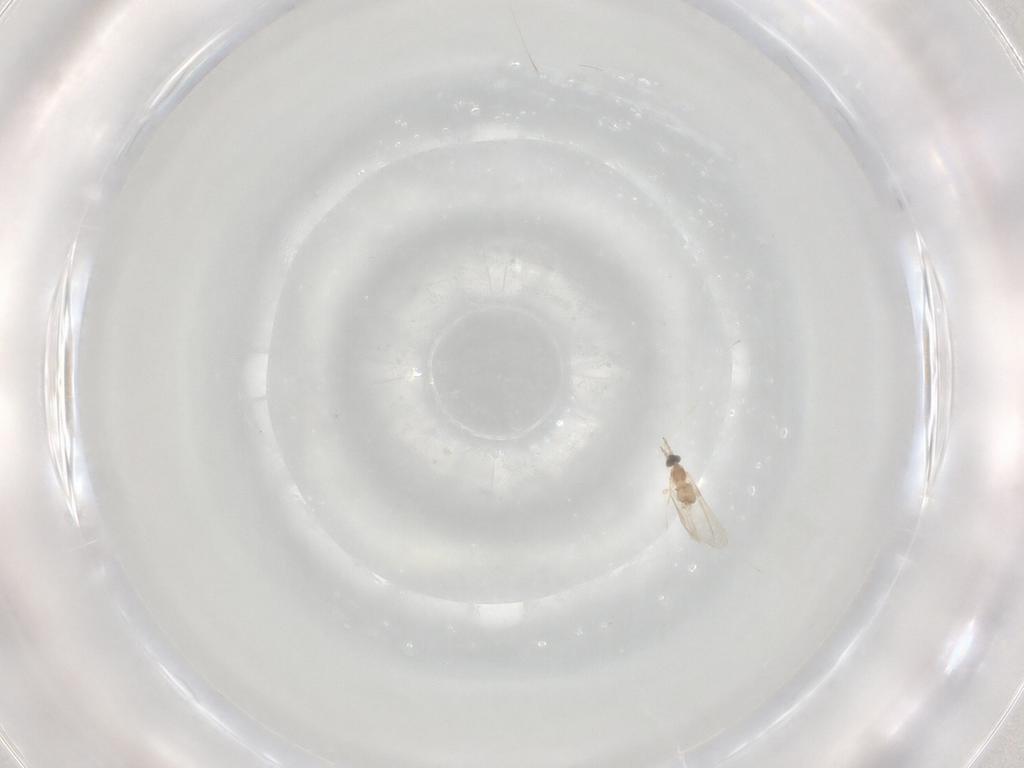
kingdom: Animalia
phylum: Arthropoda
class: Insecta
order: Diptera
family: Cecidomyiidae
